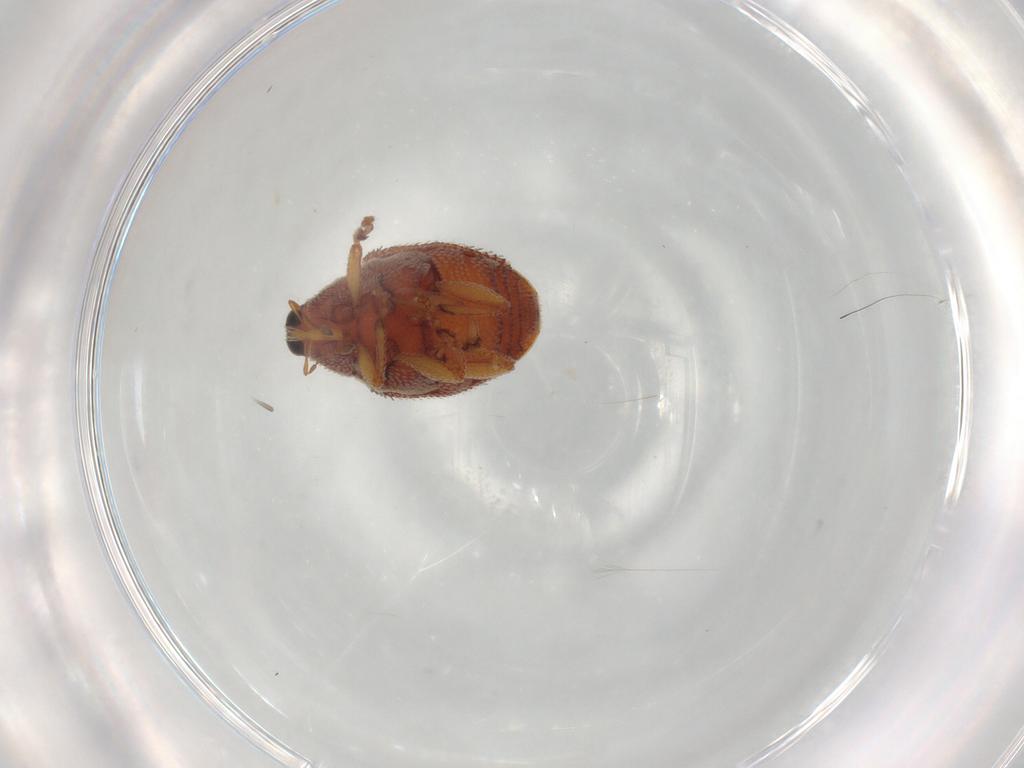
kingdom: Animalia
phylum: Arthropoda
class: Insecta
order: Coleoptera
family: Curculionidae
